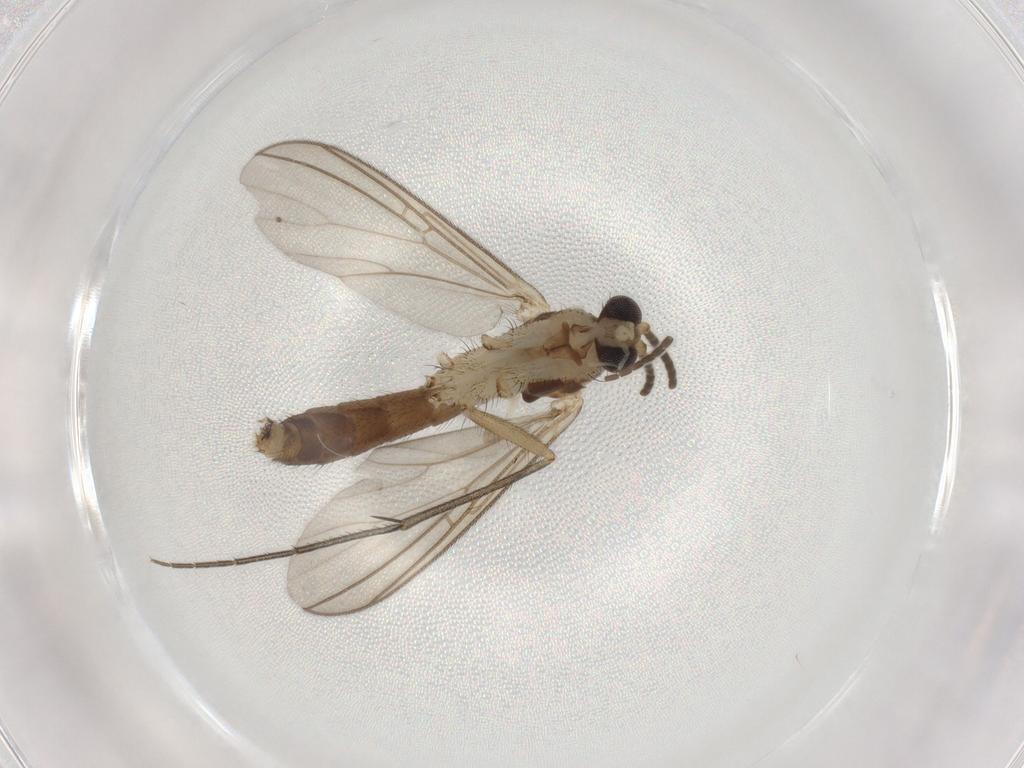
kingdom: Animalia
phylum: Arthropoda
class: Insecta
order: Diptera
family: Mycetophilidae
